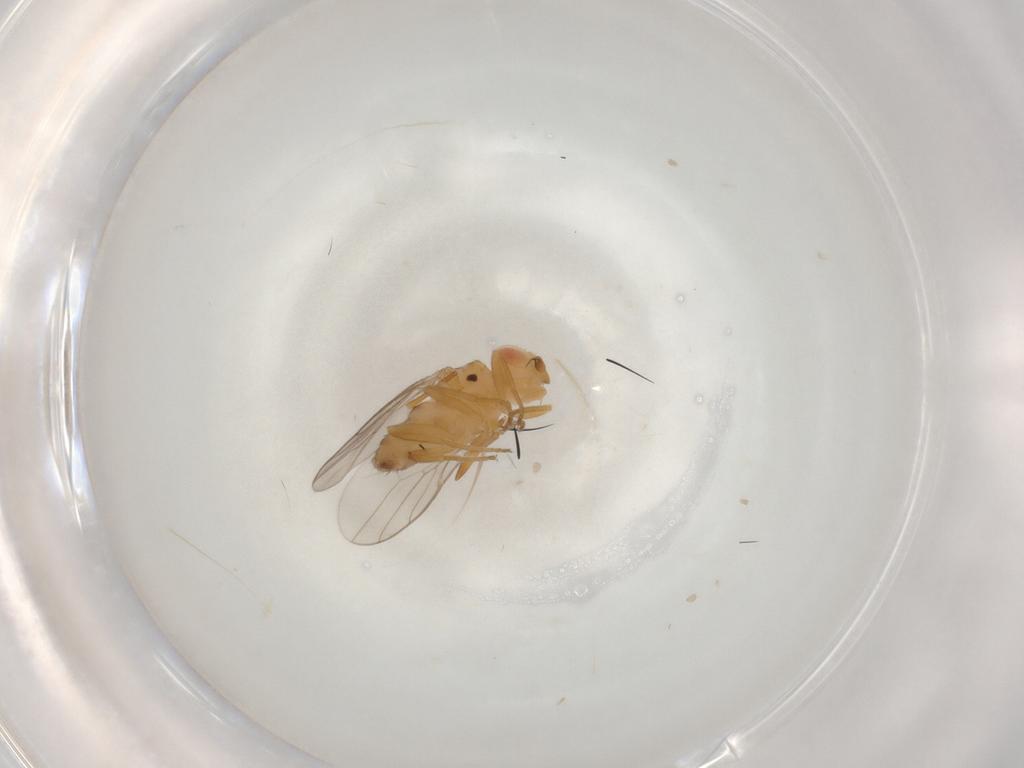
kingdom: Animalia
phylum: Arthropoda
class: Insecta
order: Diptera
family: Chloropidae
